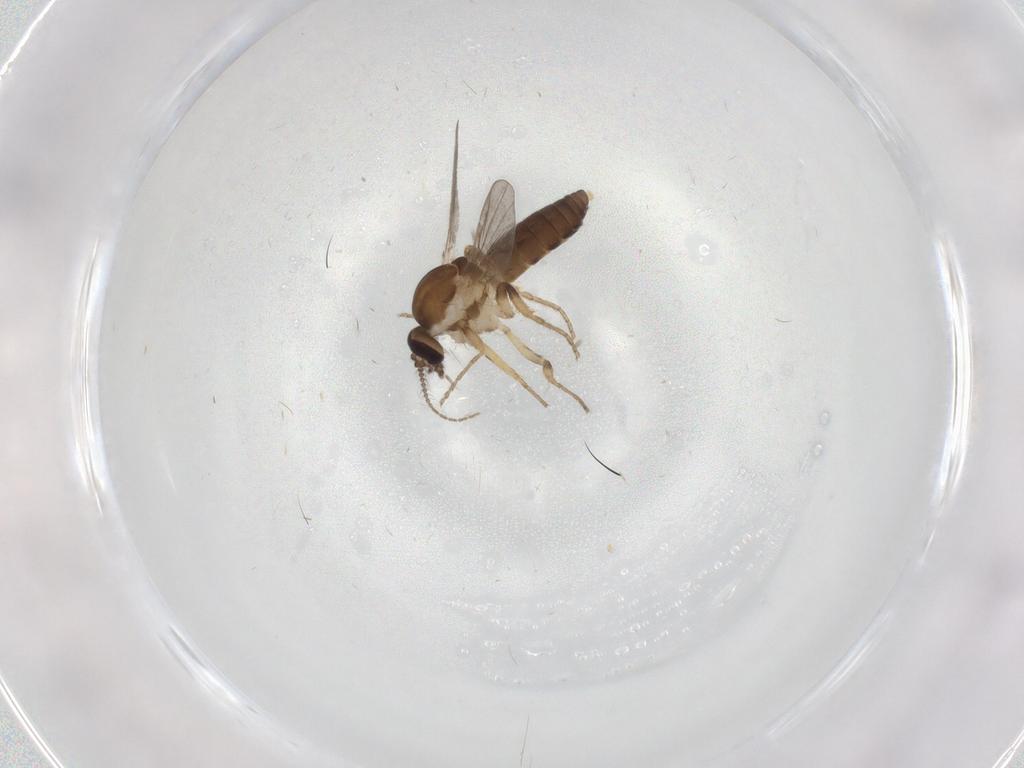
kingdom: Animalia
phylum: Arthropoda
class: Insecta
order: Diptera
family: Ceratopogonidae
